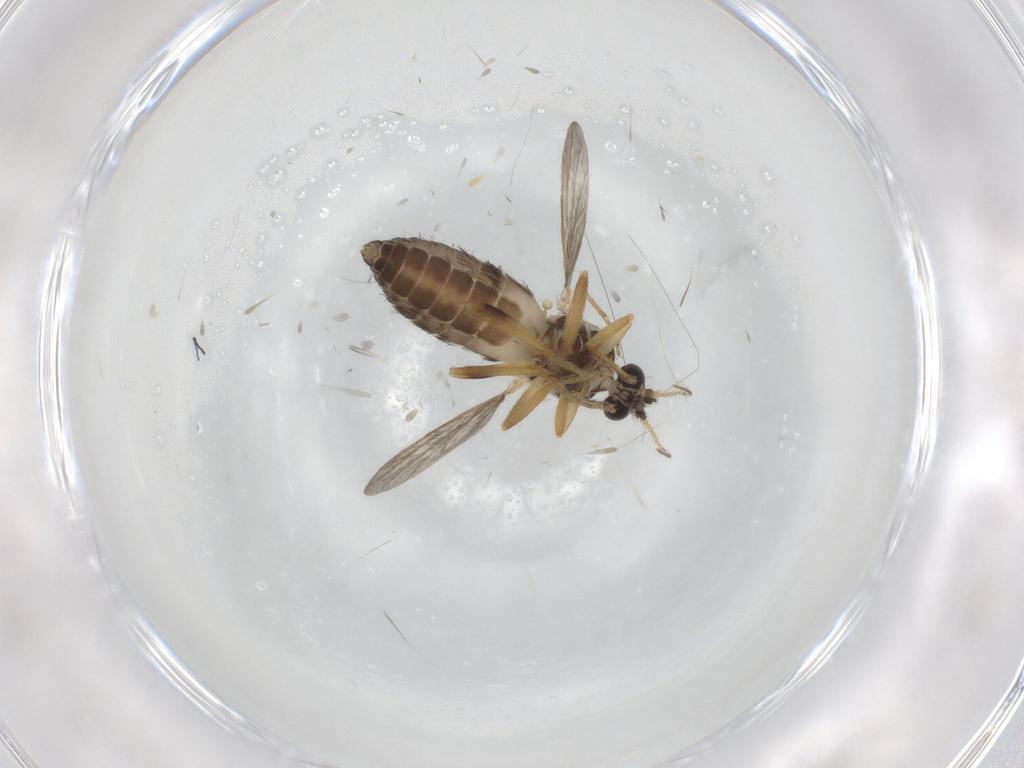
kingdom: Animalia
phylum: Arthropoda
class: Insecta
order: Diptera
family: Ceratopogonidae
